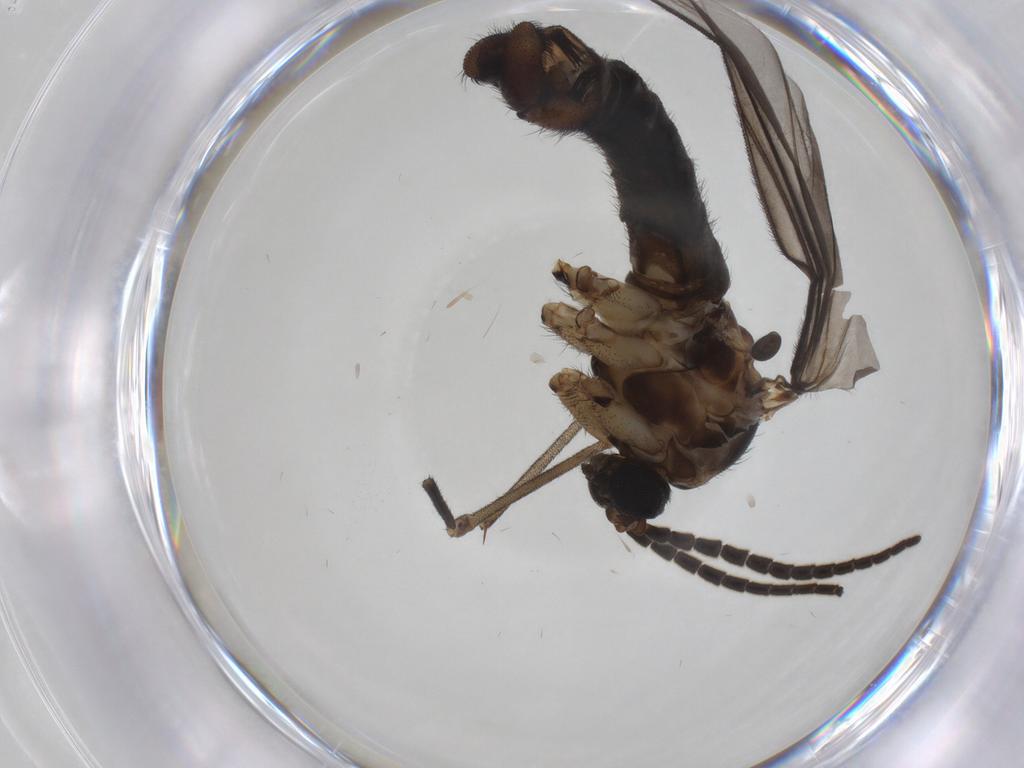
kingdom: Animalia
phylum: Arthropoda
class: Insecta
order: Diptera
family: Sciaridae
